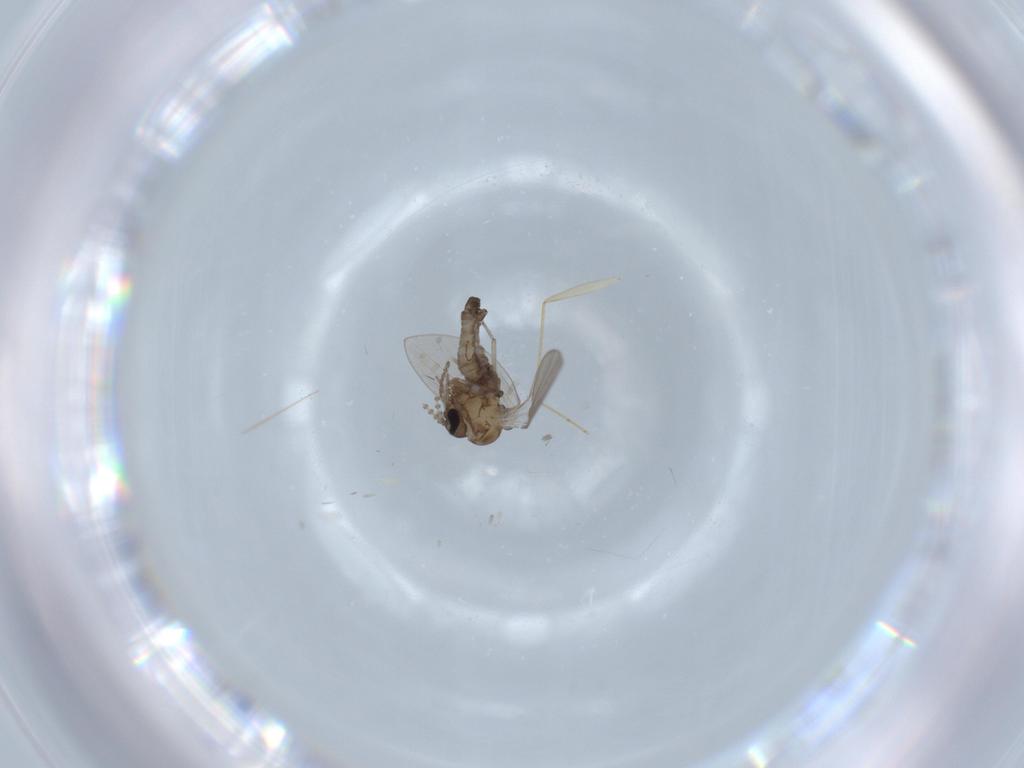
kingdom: Animalia
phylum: Arthropoda
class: Insecta
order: Diptera
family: Dolichopodidae
